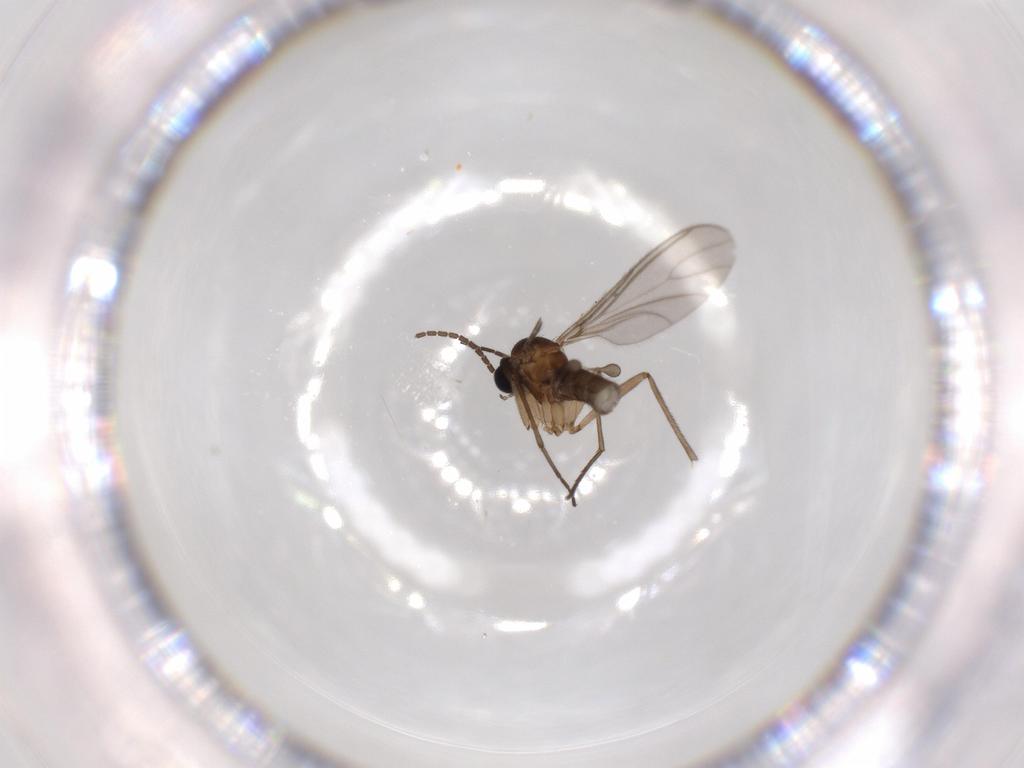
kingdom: Animalia
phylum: Arthropoda
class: Insecta
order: Diptera
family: Sciaridae
